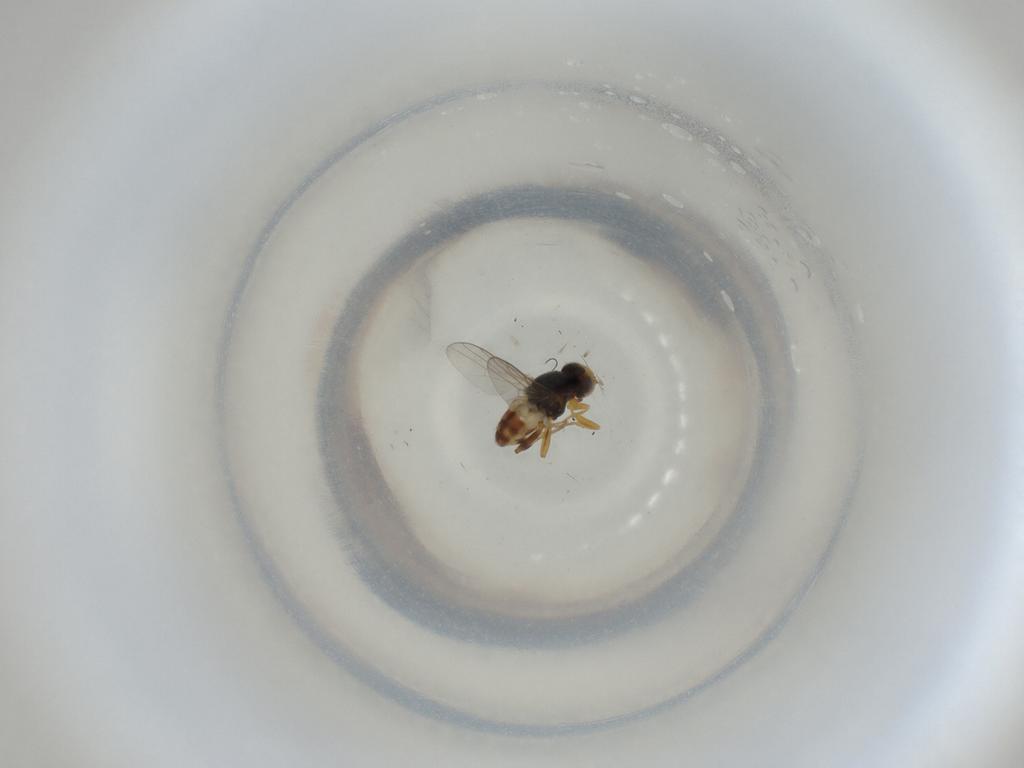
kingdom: Animalia
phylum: Arthropoda
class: Insecta
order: Diptera
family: Chloropidae
